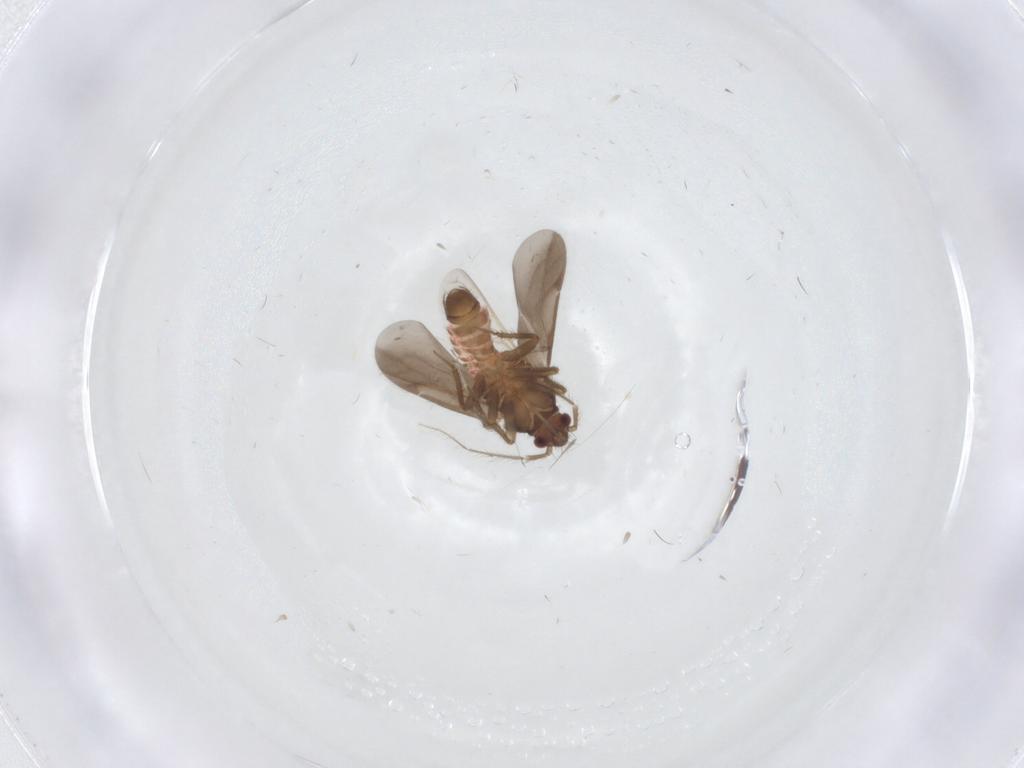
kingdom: Animalia
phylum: Arthropoda
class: Insecta
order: Hemiptera
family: Ceratocombidae
